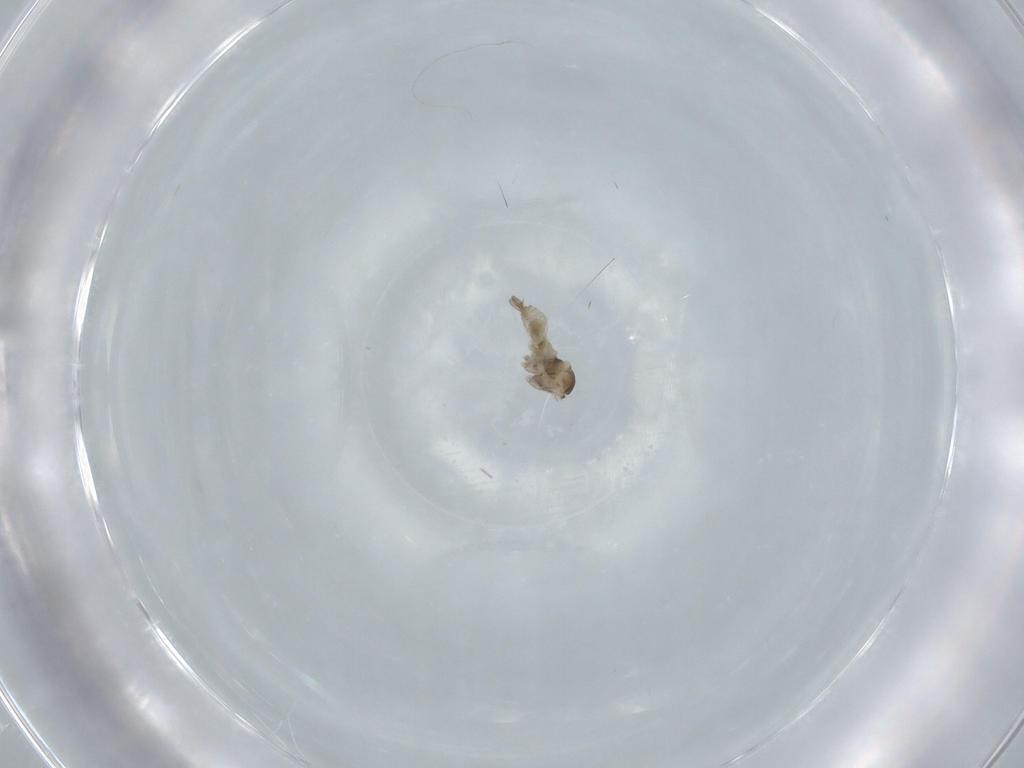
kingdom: Animalia
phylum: Arthropoda
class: Insecta
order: Diptera
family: Cecidomyiidae
